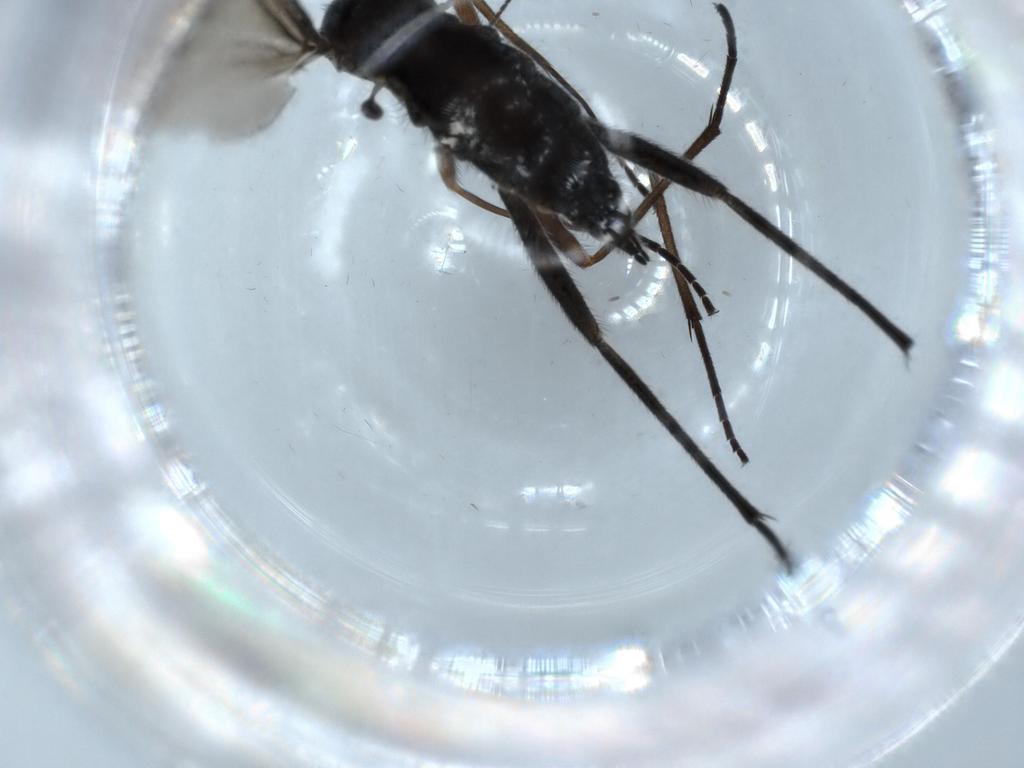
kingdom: Animalia
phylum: Arthropoda
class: Insecta
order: Diptera
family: Sciaridae
